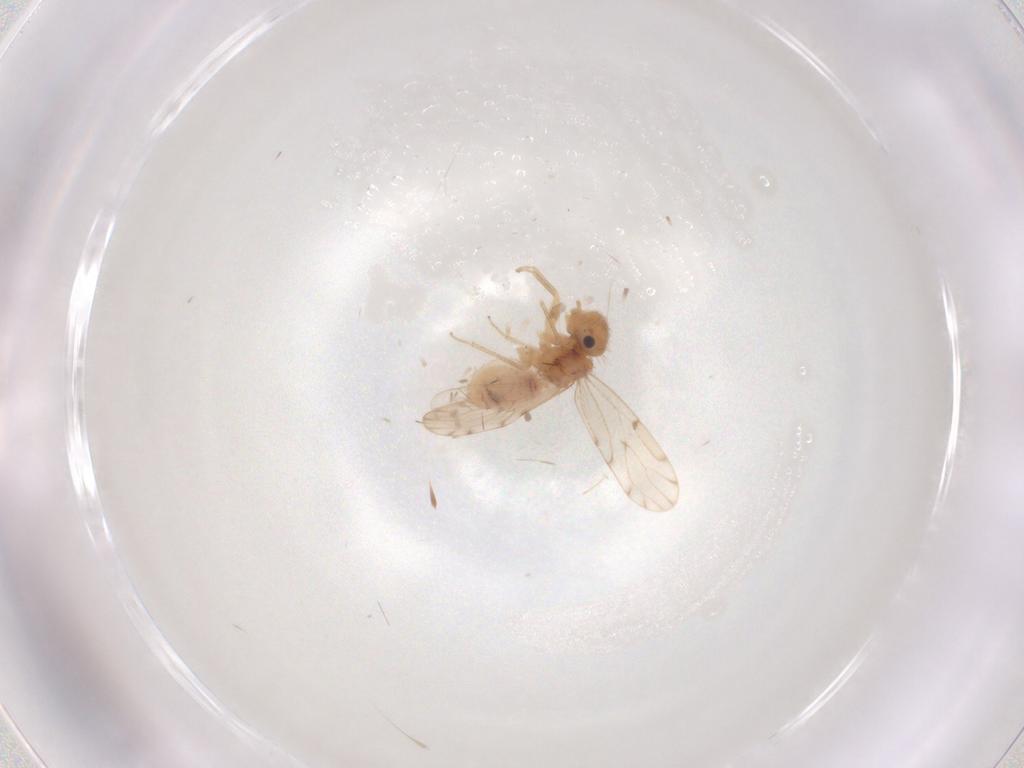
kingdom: Animalia
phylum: Arthropoda
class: Insecta
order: Psocodea
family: Ectopsocidae
